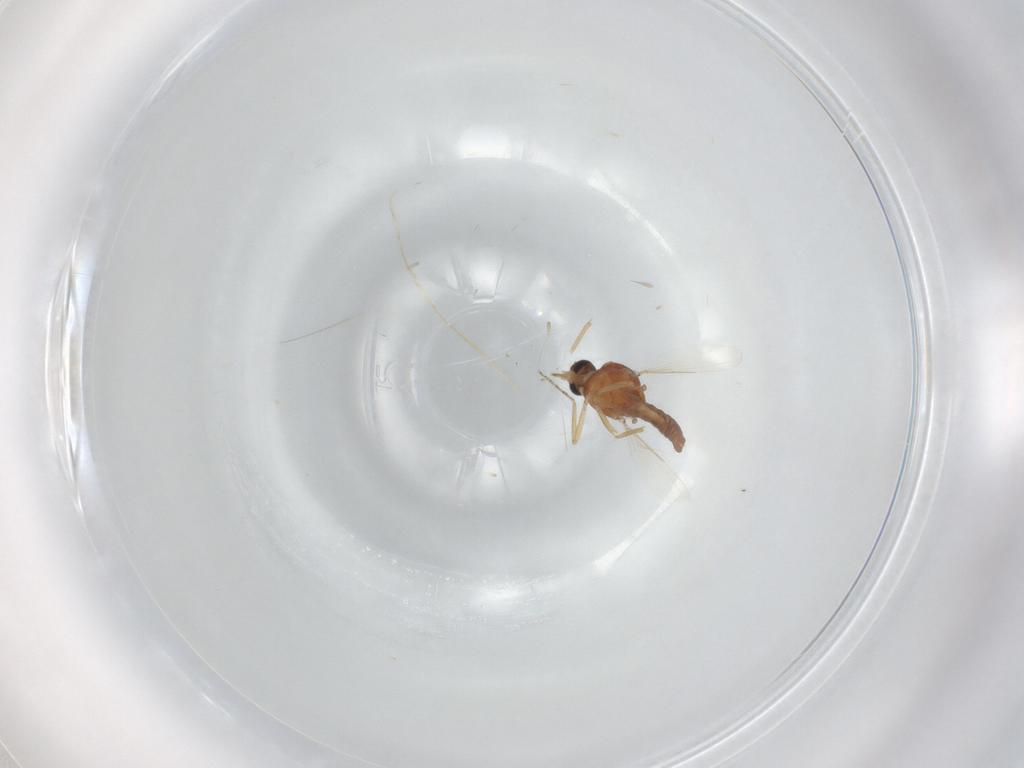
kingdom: Animalia
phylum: Arthropoda
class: Insecta
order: Diptera
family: Ceratopogonidae
